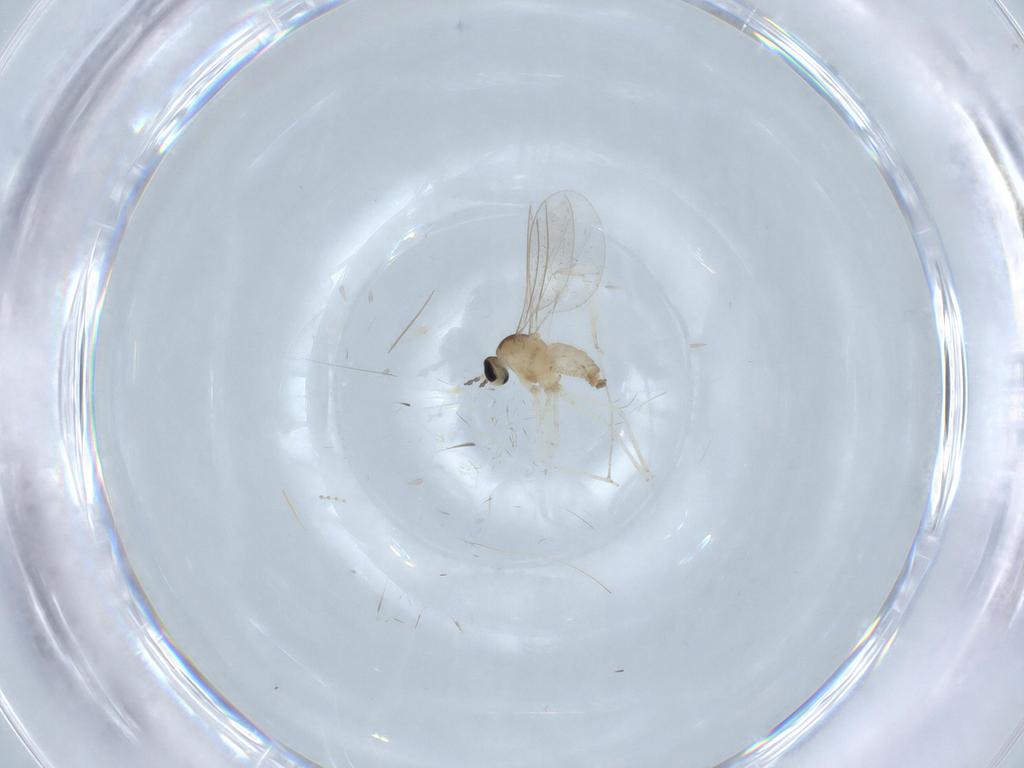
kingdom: Animalia
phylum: Arthropoda
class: Insecta
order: Diptera
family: Cecidomyiidae
